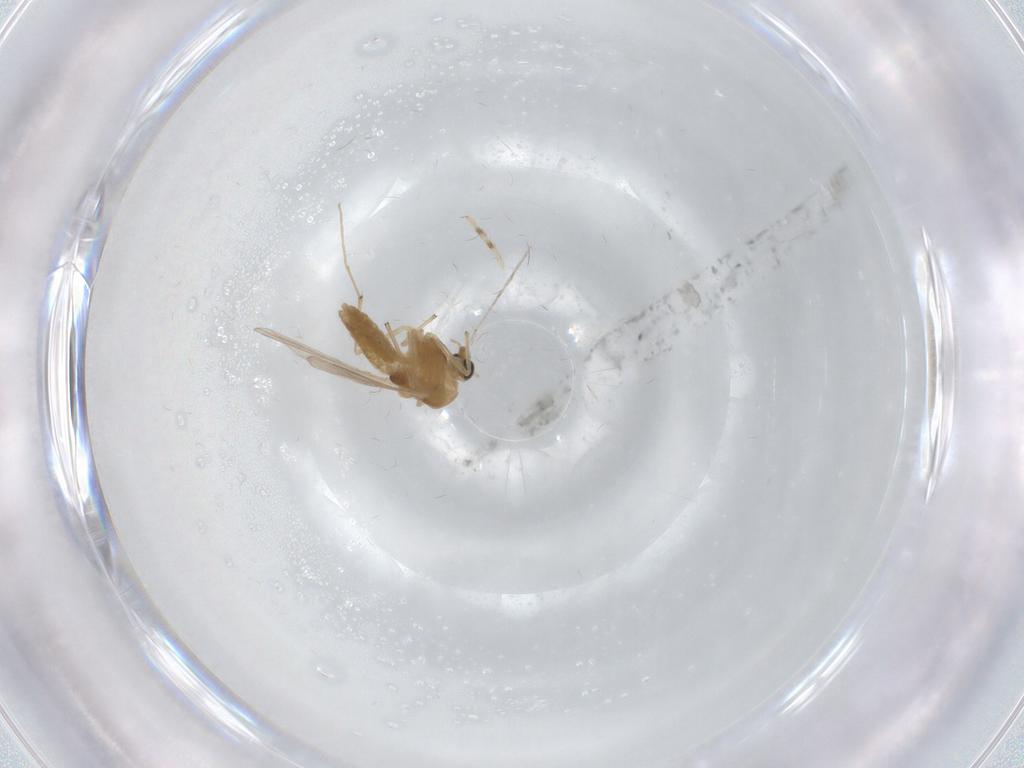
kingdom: Animalia
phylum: Arthropoda
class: Insecta
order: Diptera
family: Chironomidae
